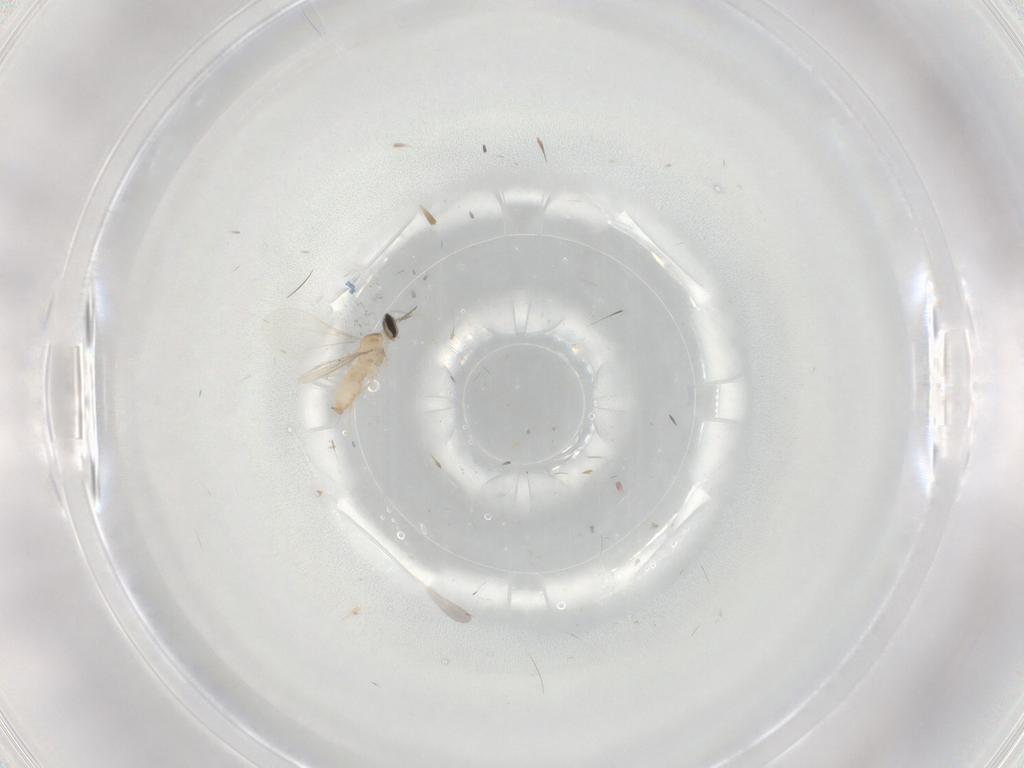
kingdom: Animalia
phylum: Arthropoda
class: Insecta
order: Diptera
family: Cecidomyiidae
